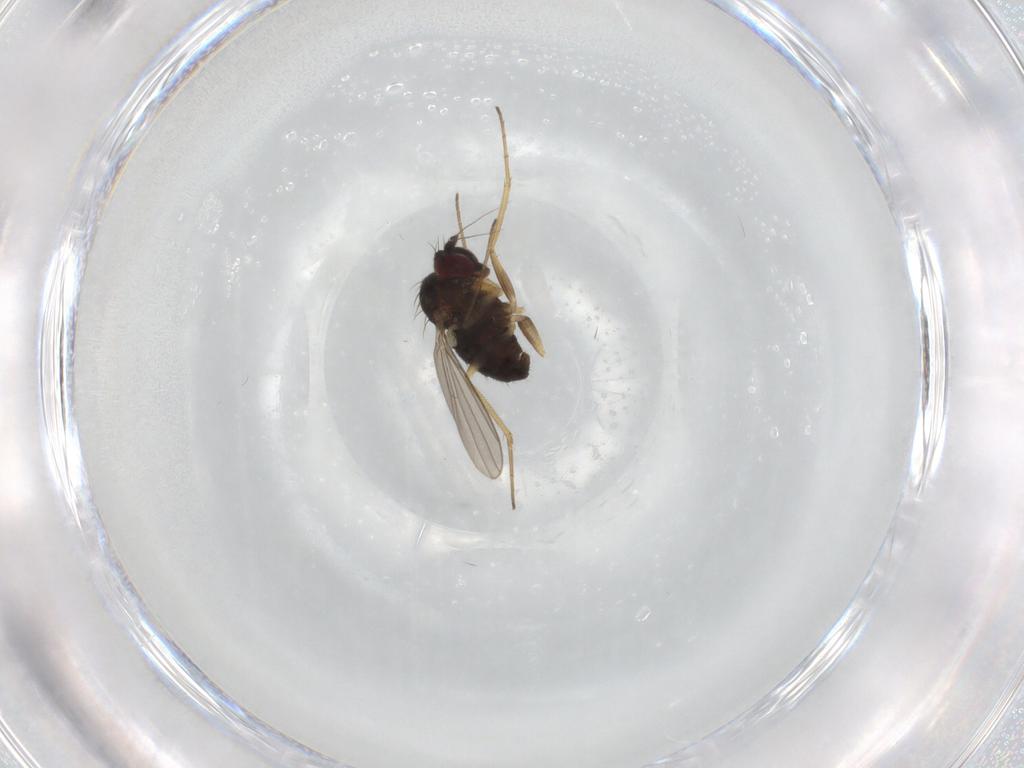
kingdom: Animalia
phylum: Arthropoda
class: Insecta
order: Diptera
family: Dolichopodidae
